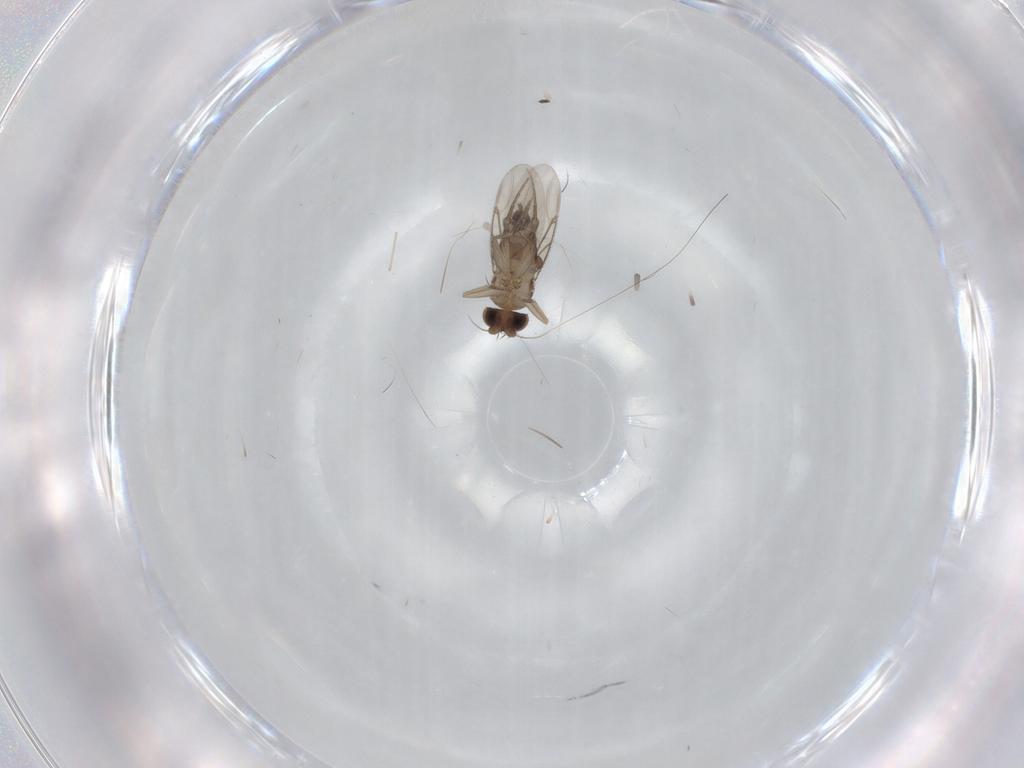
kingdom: Animalia
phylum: Arthropoda
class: Insecta
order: Diptera
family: Phoridae
